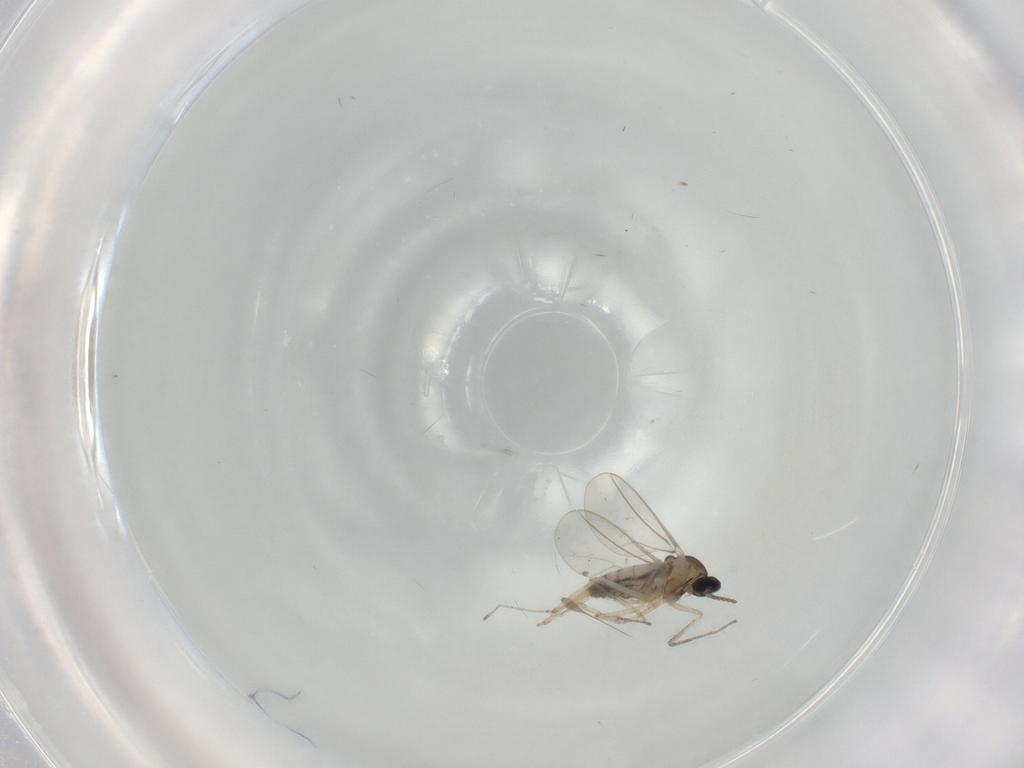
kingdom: Animalia
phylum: Arthropoda
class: Insecta
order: Diptera
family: Cecidomyiidae
